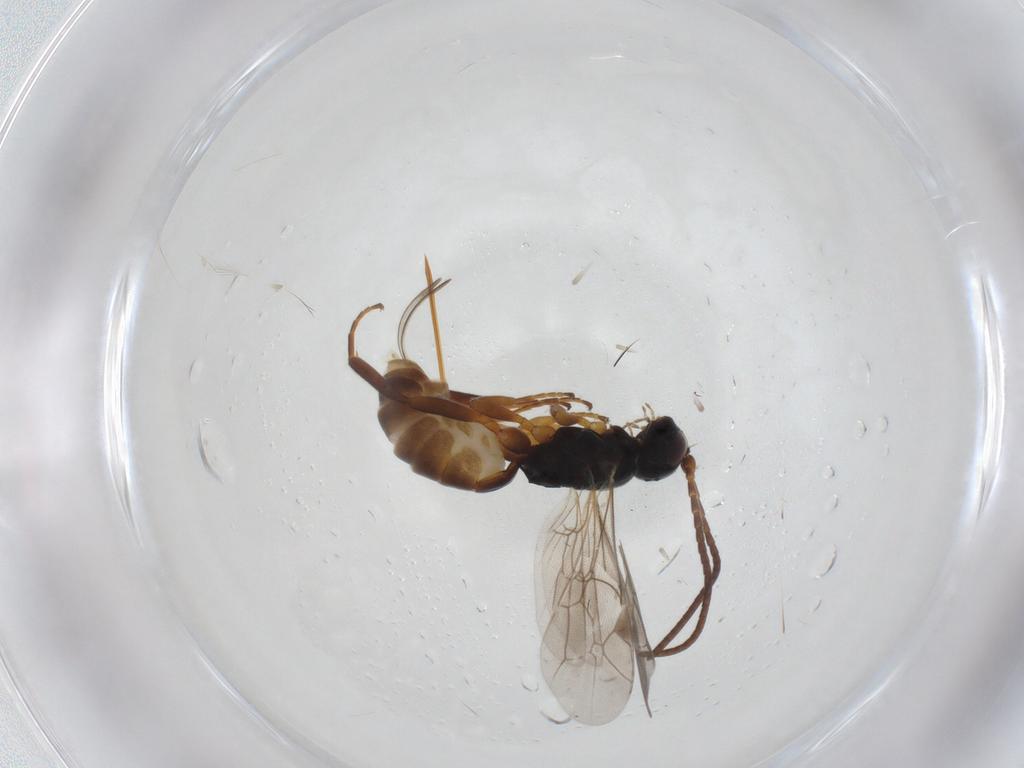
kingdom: Animalia
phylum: Arthropoda
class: Insecta
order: Hymenoptera
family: Ichneumonidae
